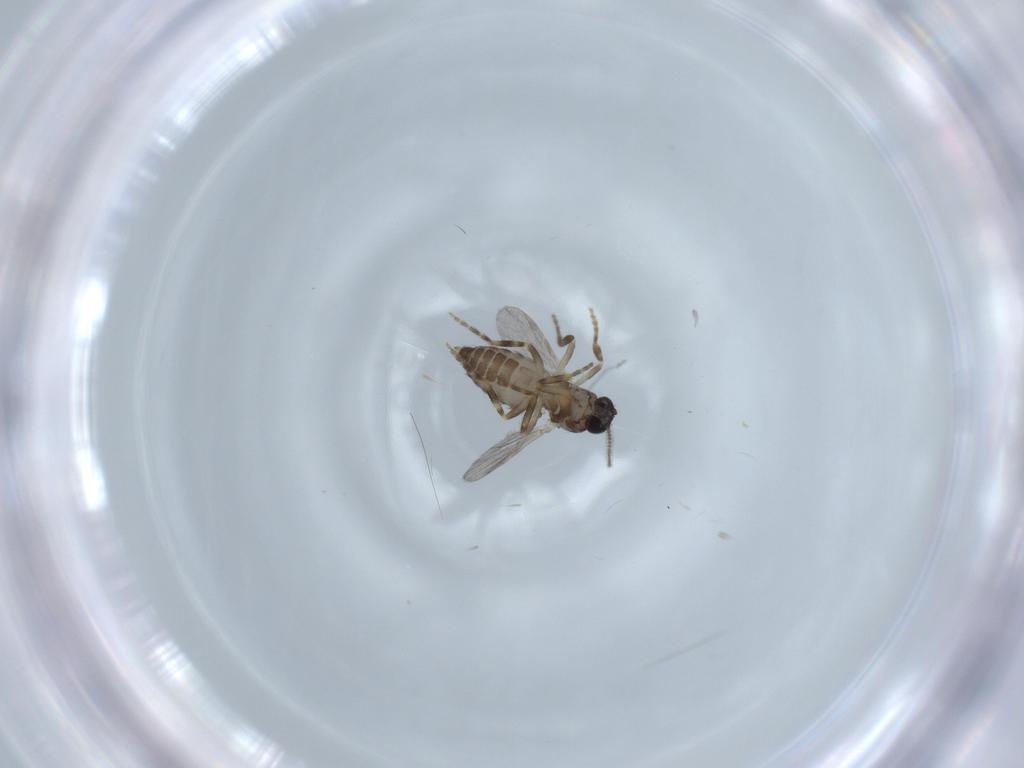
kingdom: Animalia
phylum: Arthropoda
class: Insecta
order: Diptera
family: Ceratopogonidae
